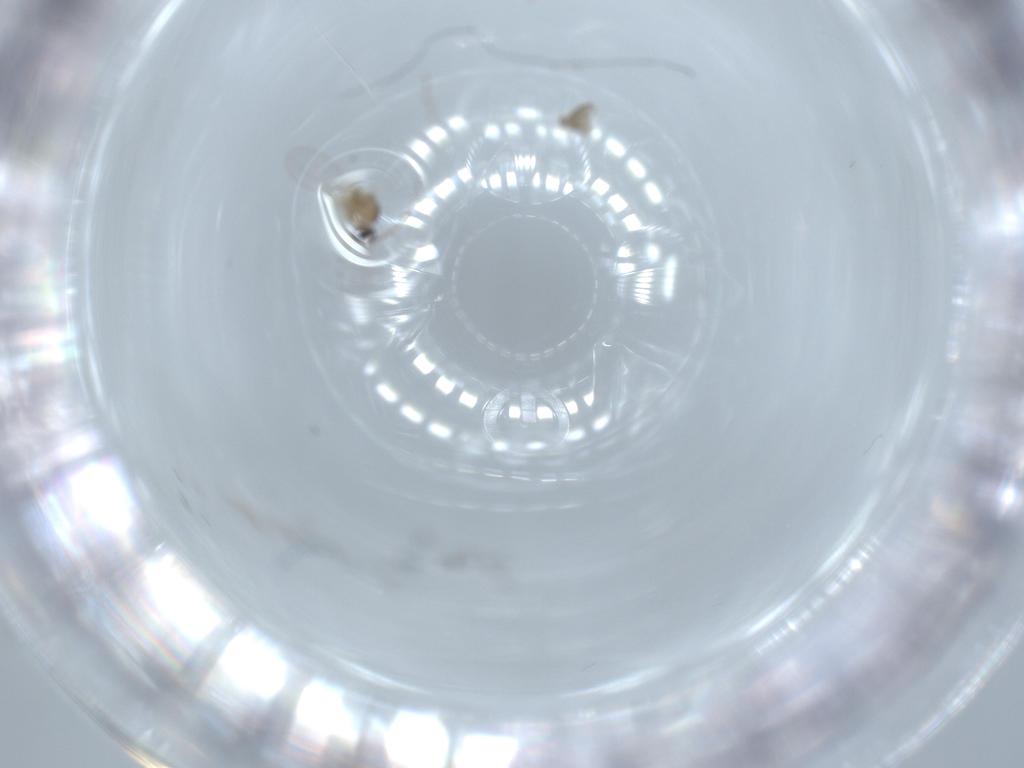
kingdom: Animalia
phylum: Arthropoda
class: Insecta
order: Diptera
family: Cecidomyiidae
